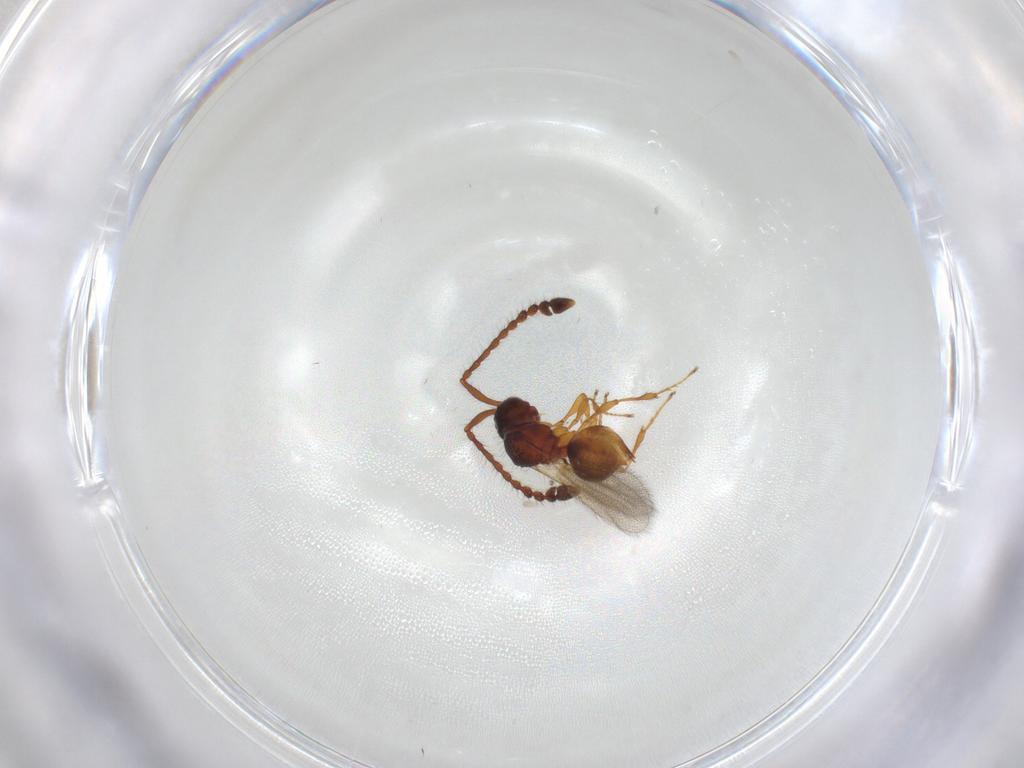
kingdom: Animalia
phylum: Arthropoda
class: Insecta
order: Hymenoptera
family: Diapriidae
